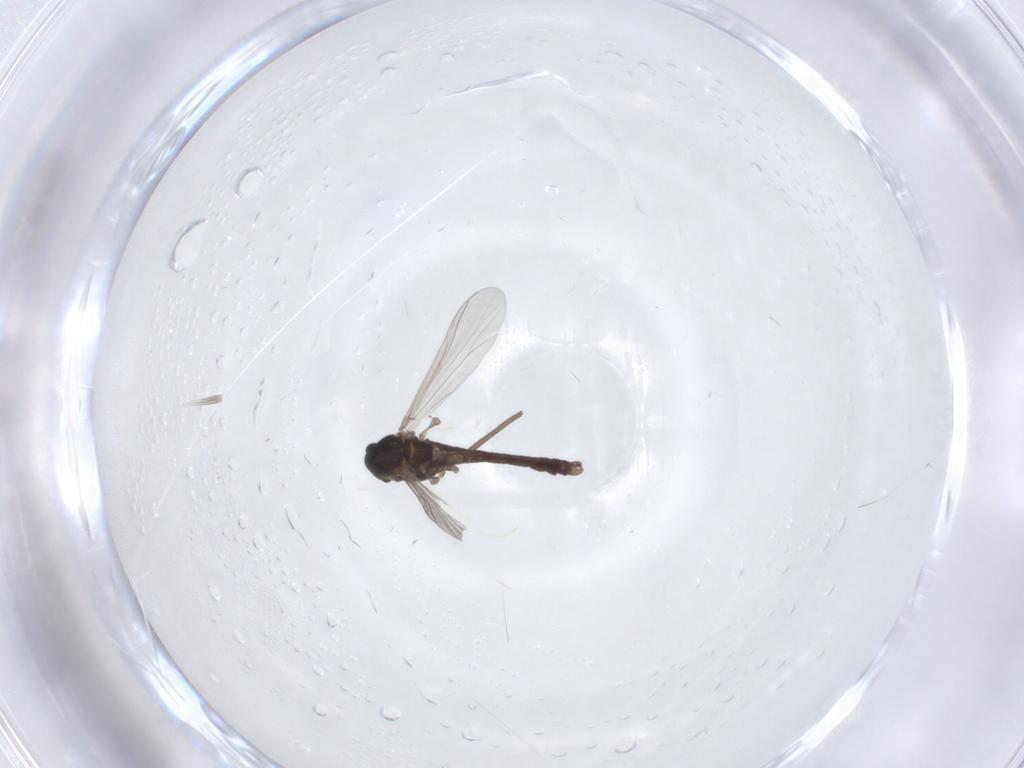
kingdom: Animalia
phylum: Arthropoda
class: Insecta
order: Diptera
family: Chironomidae
